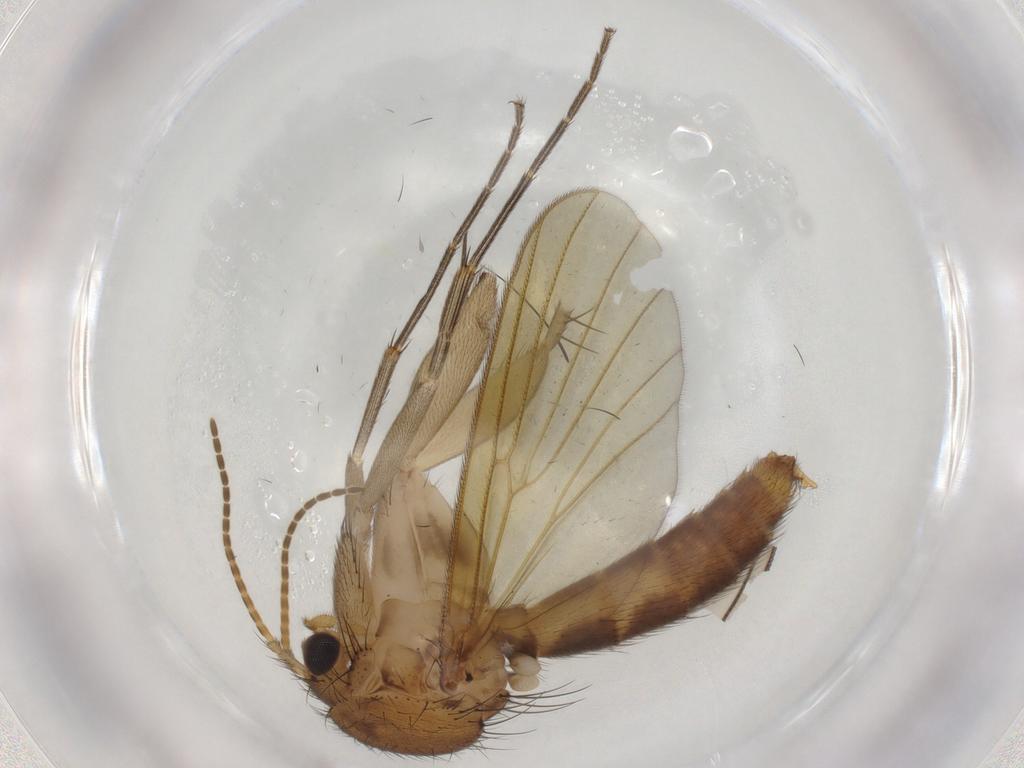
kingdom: Animalia
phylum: Arthropoda
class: Insecta
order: Diptera
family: Mycetophilidae
